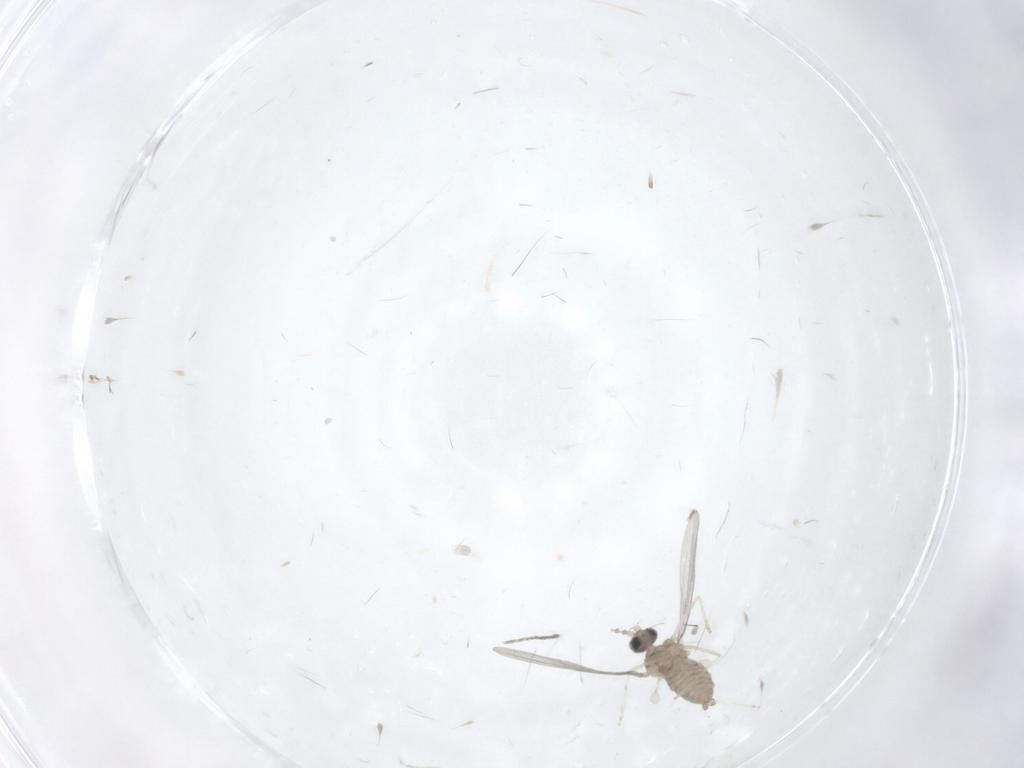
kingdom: Animalia
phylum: Arthropoda
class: Insecta
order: Diptera
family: Cecidomyiidae
